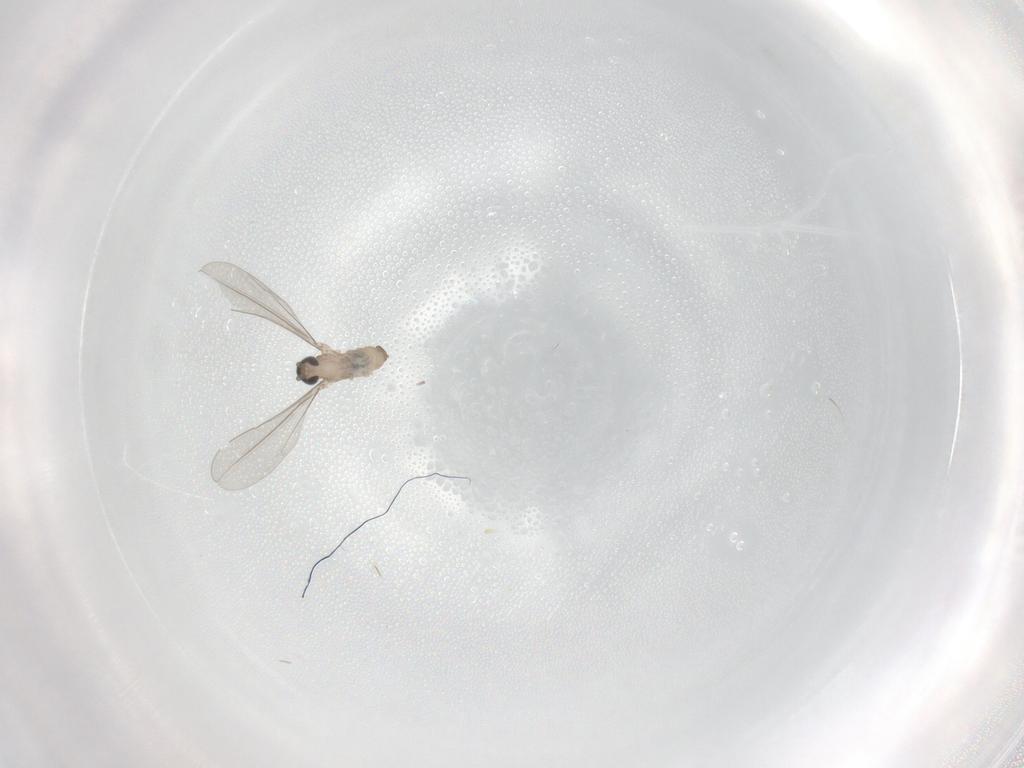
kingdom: Animalia
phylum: Arthropoda
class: Insecta
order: Diptera
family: Cecidomyiidae
